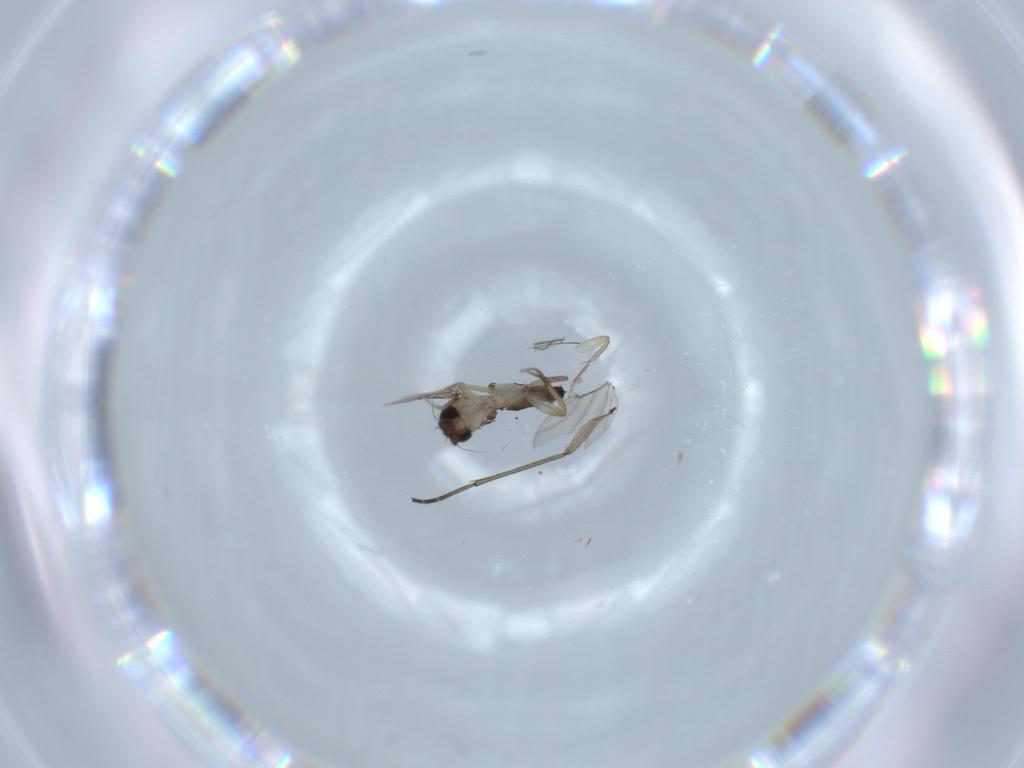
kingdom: Animalia
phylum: Arthropoda
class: Insecta
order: Diptera
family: Phoridae
